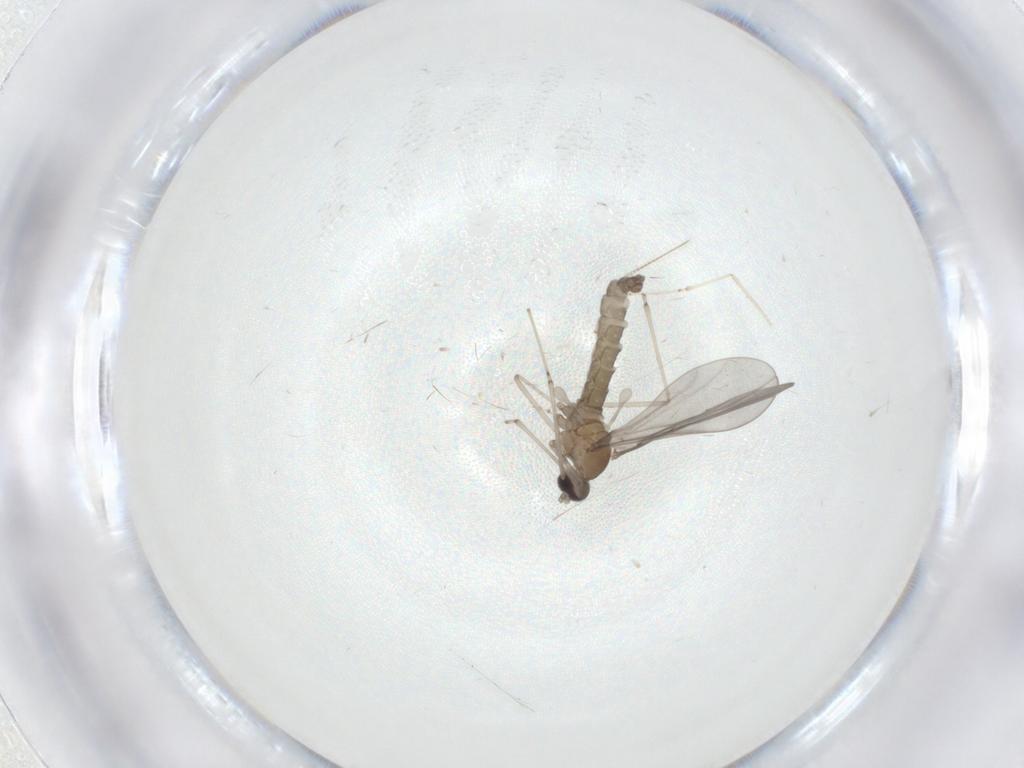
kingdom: Animalia
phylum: Arthropoda
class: Insecta
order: Diptera
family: Cecidomyiidae
